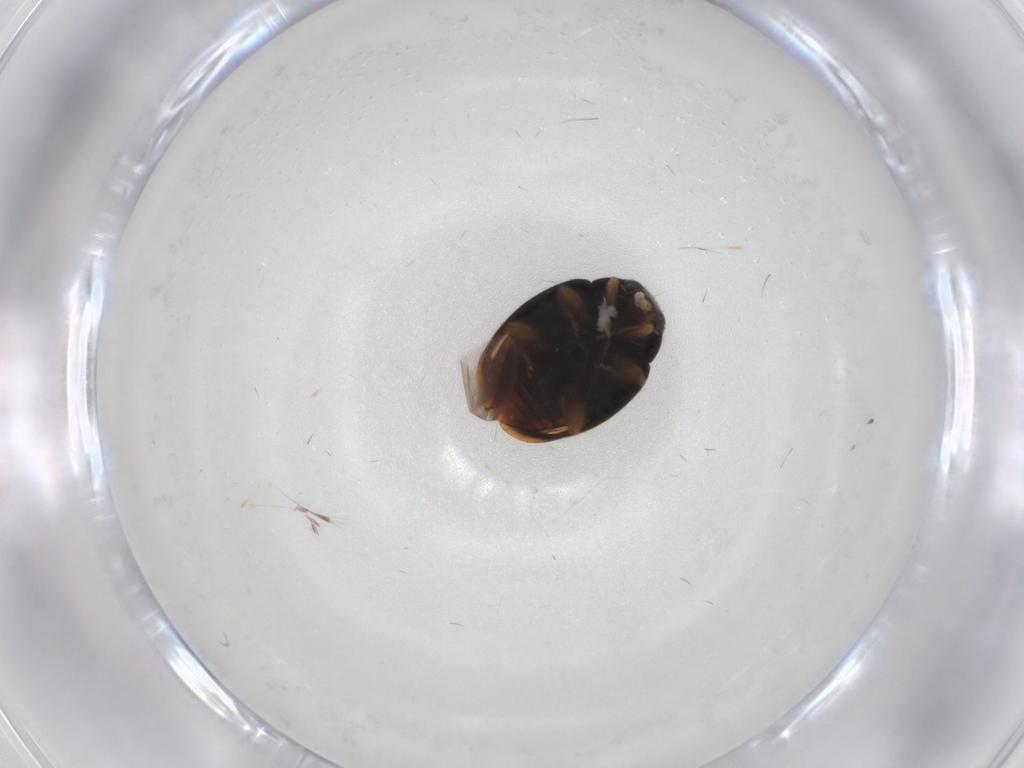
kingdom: Animalia
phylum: Arthropoda
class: Insecta
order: Coleoptera
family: Coccinellidae
